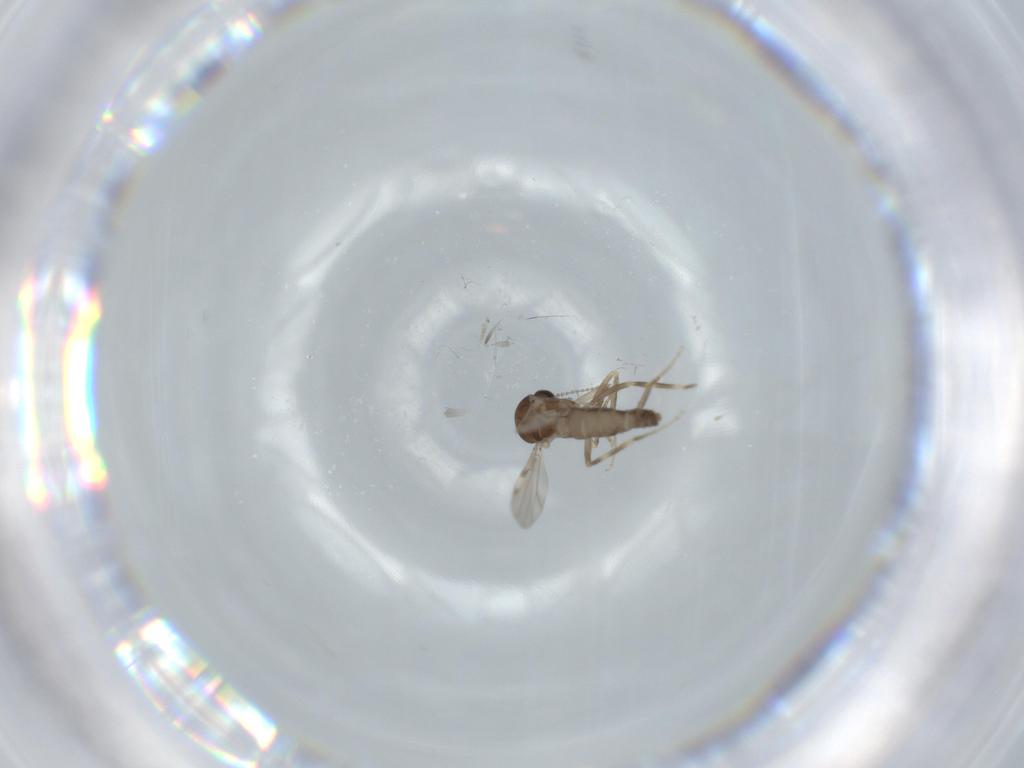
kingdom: Animalia
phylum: Arthropoda
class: Insecta
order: Diptera
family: Ceratopogonidae
